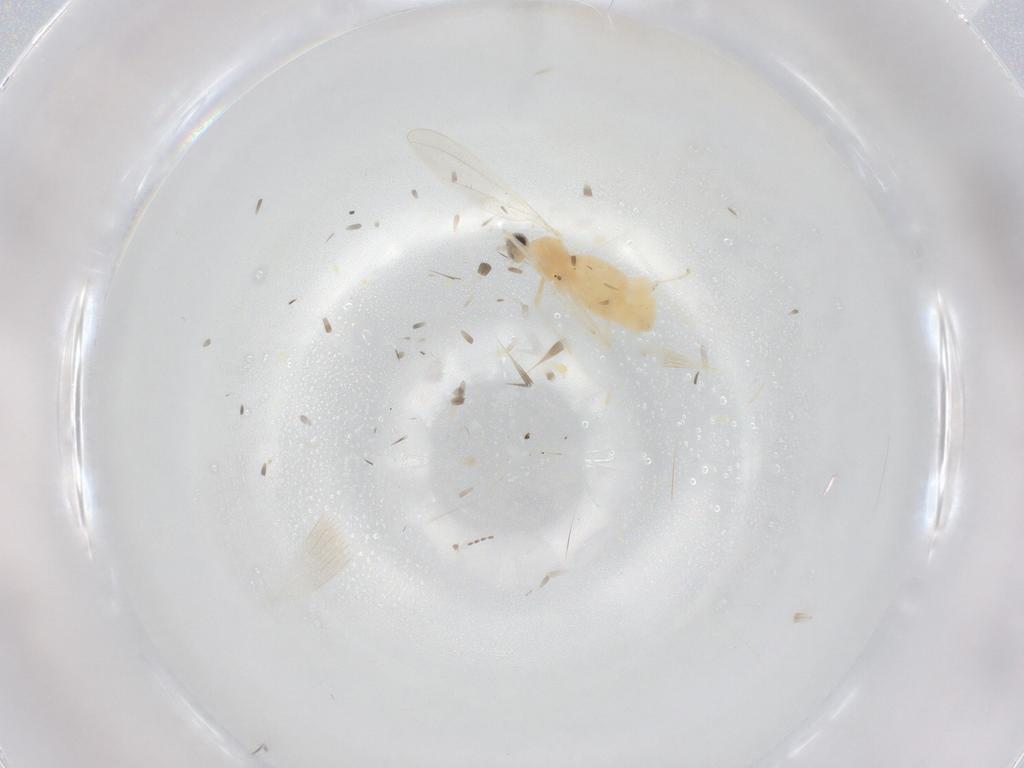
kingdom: Animalia
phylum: Arthropoda
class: Insecta
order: Diptera
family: Cecidomyiidae
